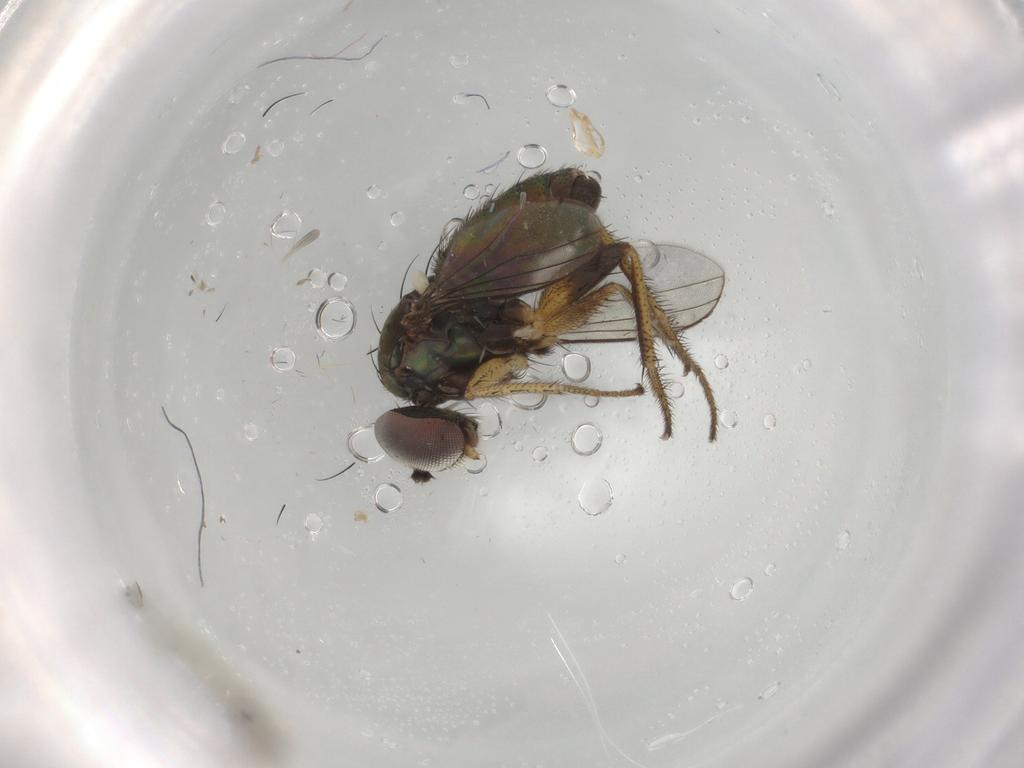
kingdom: Animalia
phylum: Arthropoda
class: Insecta
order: Diptera
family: Dolichopodidae
